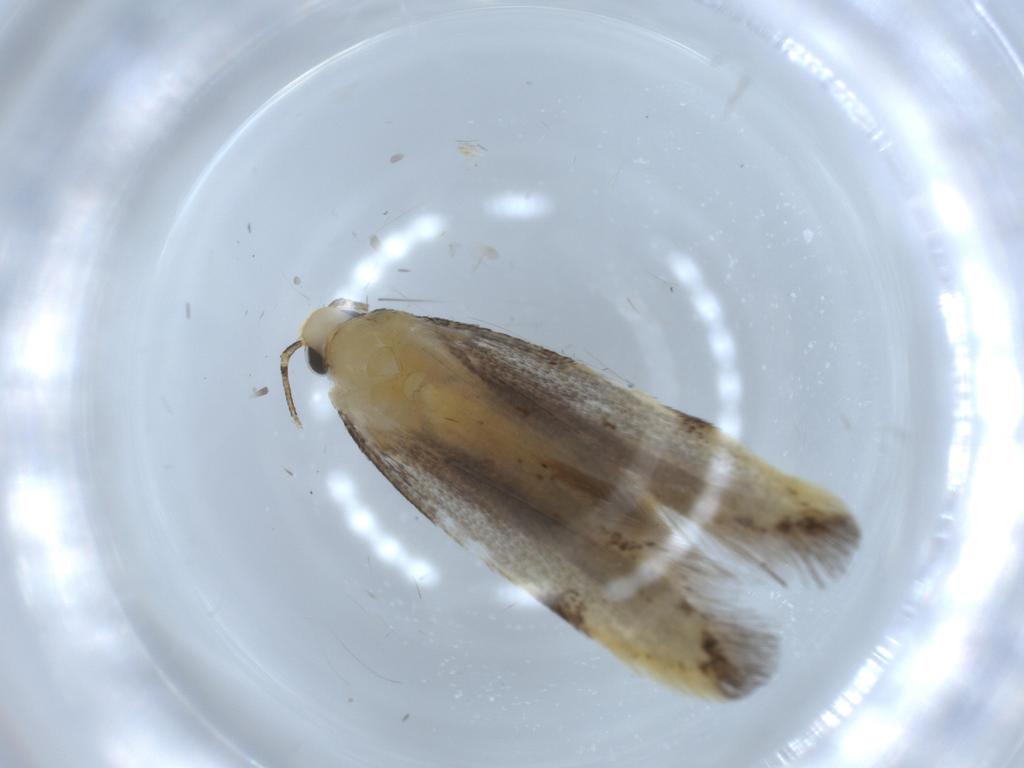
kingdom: Animalia
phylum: Arthropoda
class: Insecta
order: Lepidoptera
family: Autostichidae
